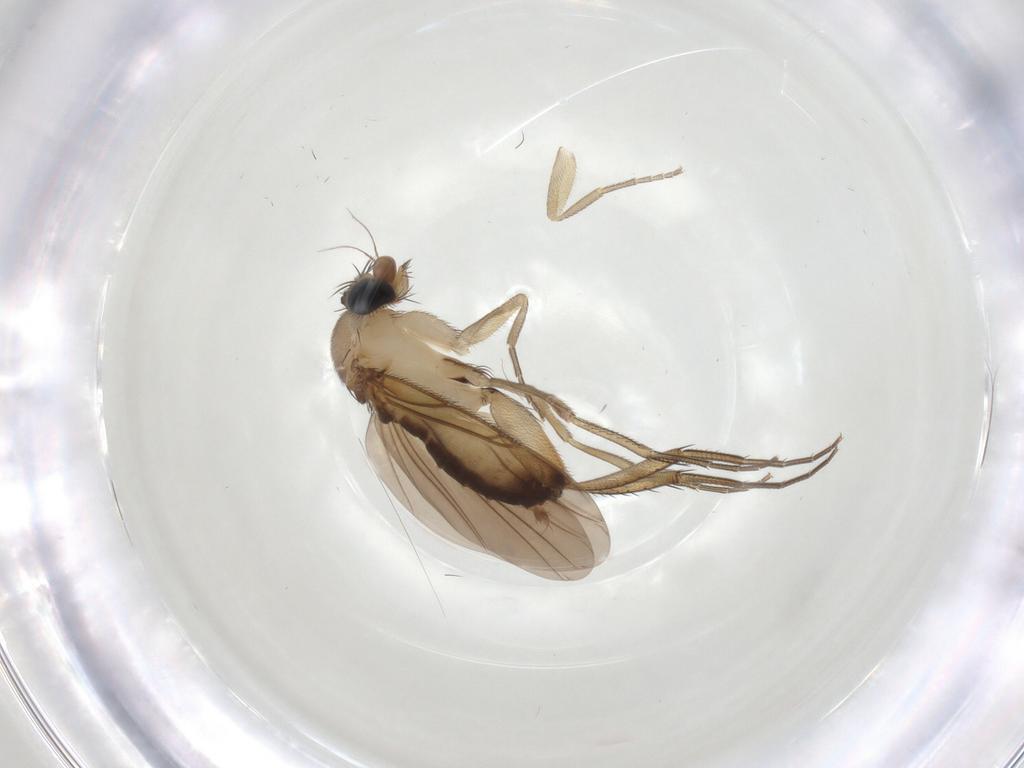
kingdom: Animalia
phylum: Arthropoda
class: Insecta
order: Diptera
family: Phoridae
